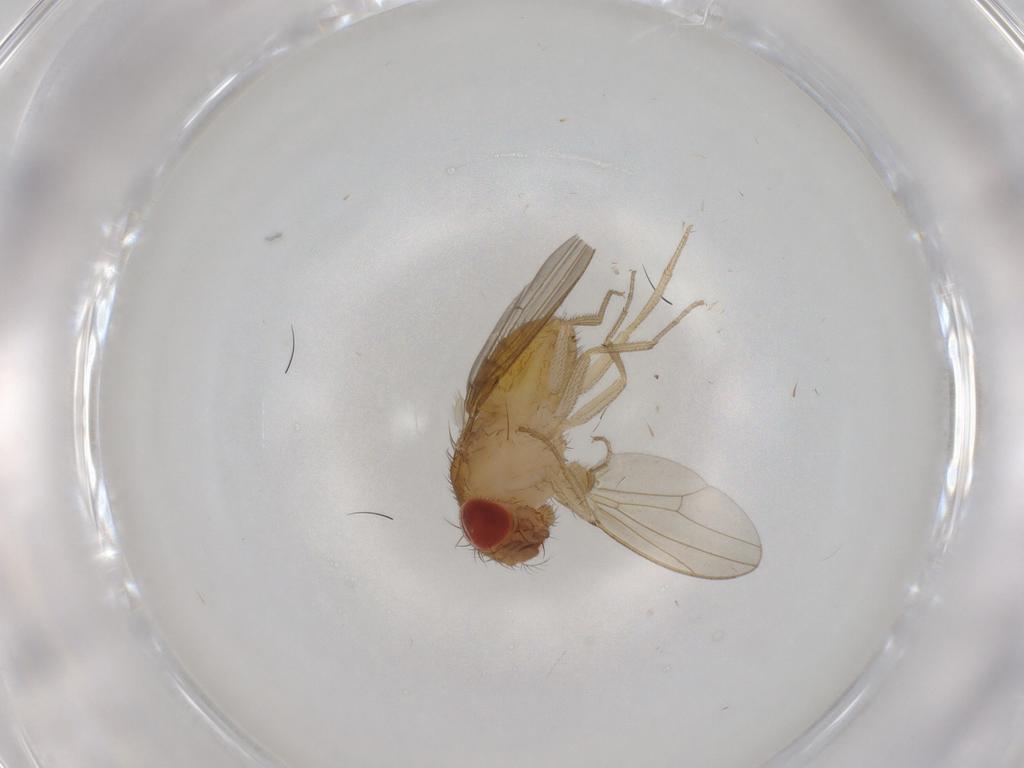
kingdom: Animalia
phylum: Arthropoda
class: Insecta
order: Diptera
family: Drosophilidae
